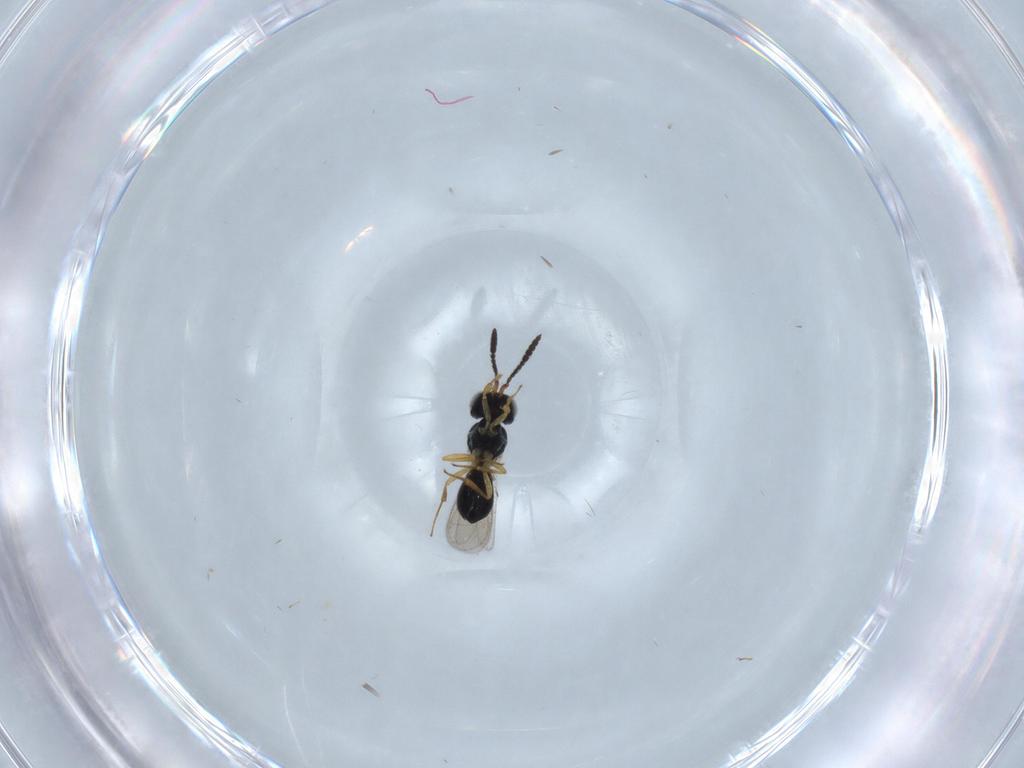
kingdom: Animalia
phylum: Arthropoda
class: Insecta
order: Hymenoptera
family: Scelionidae
